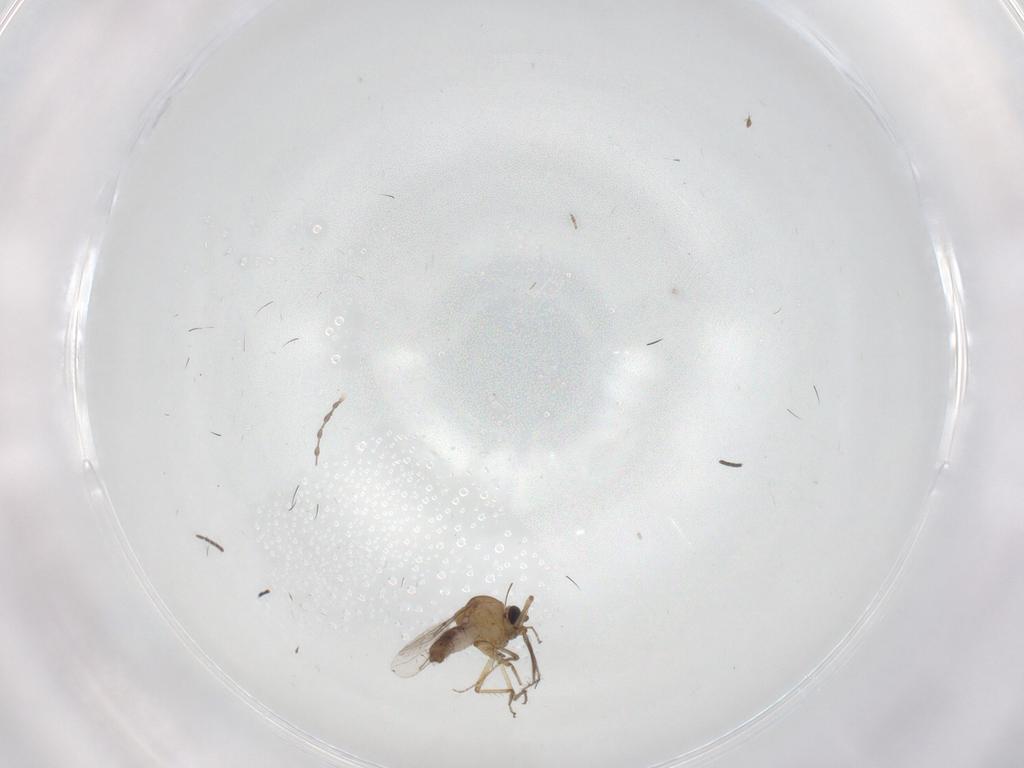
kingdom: Animalia
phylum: Arthropoda
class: Insecta
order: Diptera
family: Sciaridae
